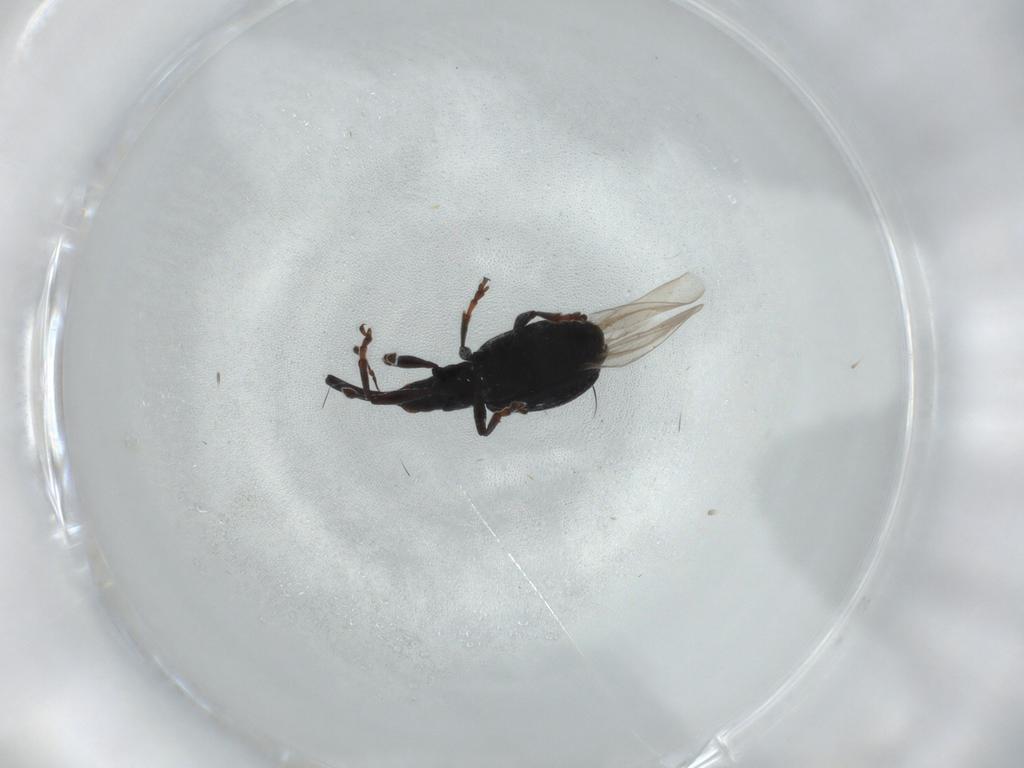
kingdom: Animalia
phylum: Arthropoda
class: Insecta
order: Coleoptera
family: Brentidae
